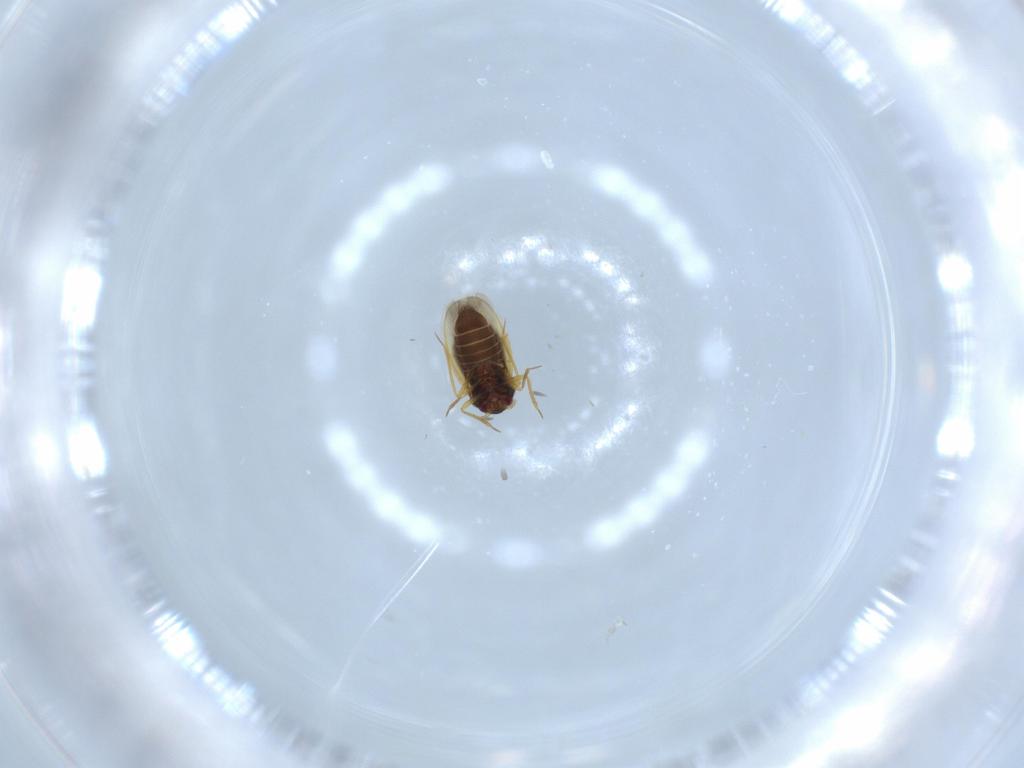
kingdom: Animalia
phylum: Arthropoda
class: Insecta
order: Hemiptera
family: Schizopteridae
